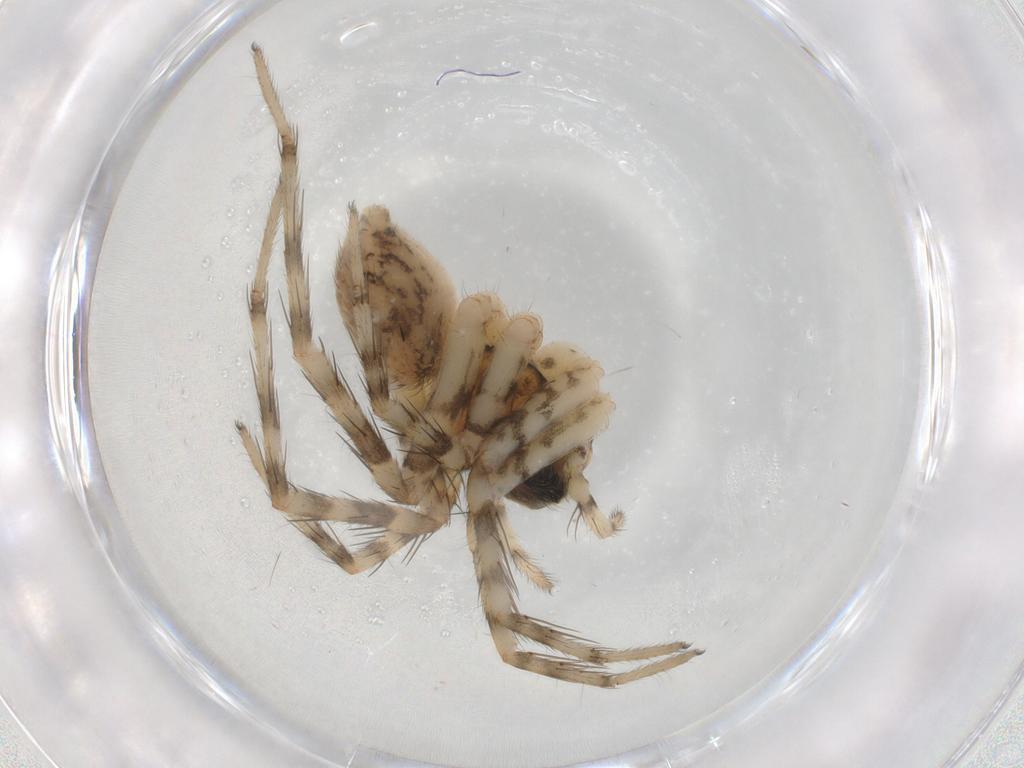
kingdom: Animalia
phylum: Arthropoda
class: Arachnida
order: Araneae
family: Lycosidae
